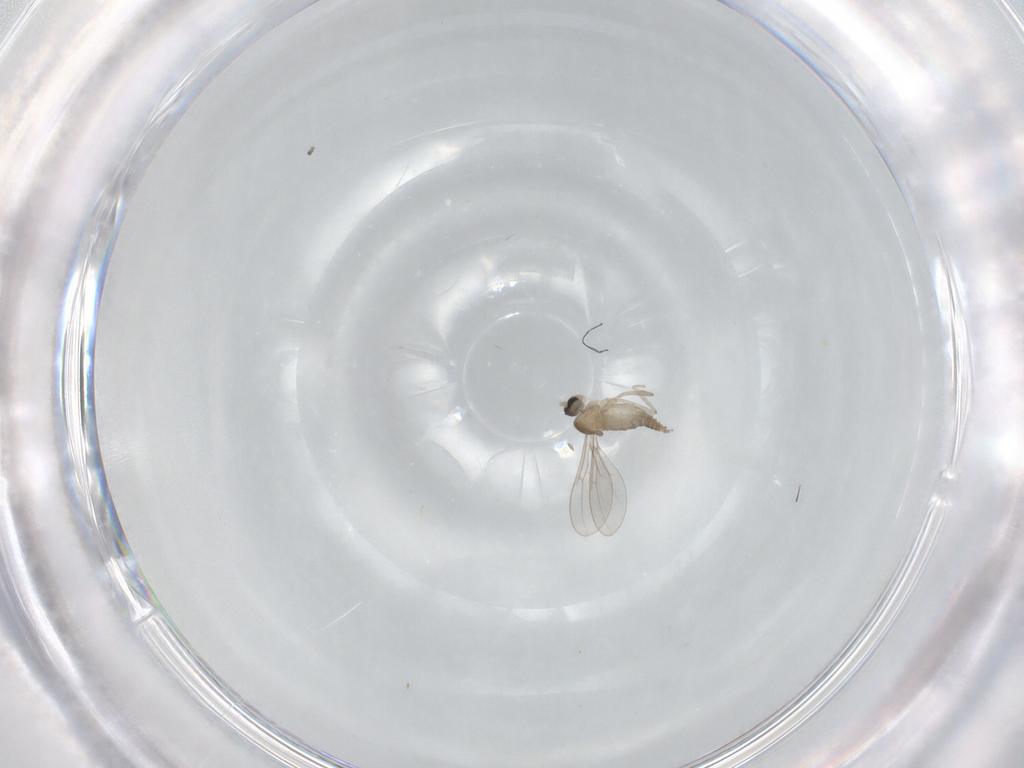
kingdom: Animalia
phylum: Arthropoda
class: Insecta
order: Diptera
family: Cecidomyiidae
